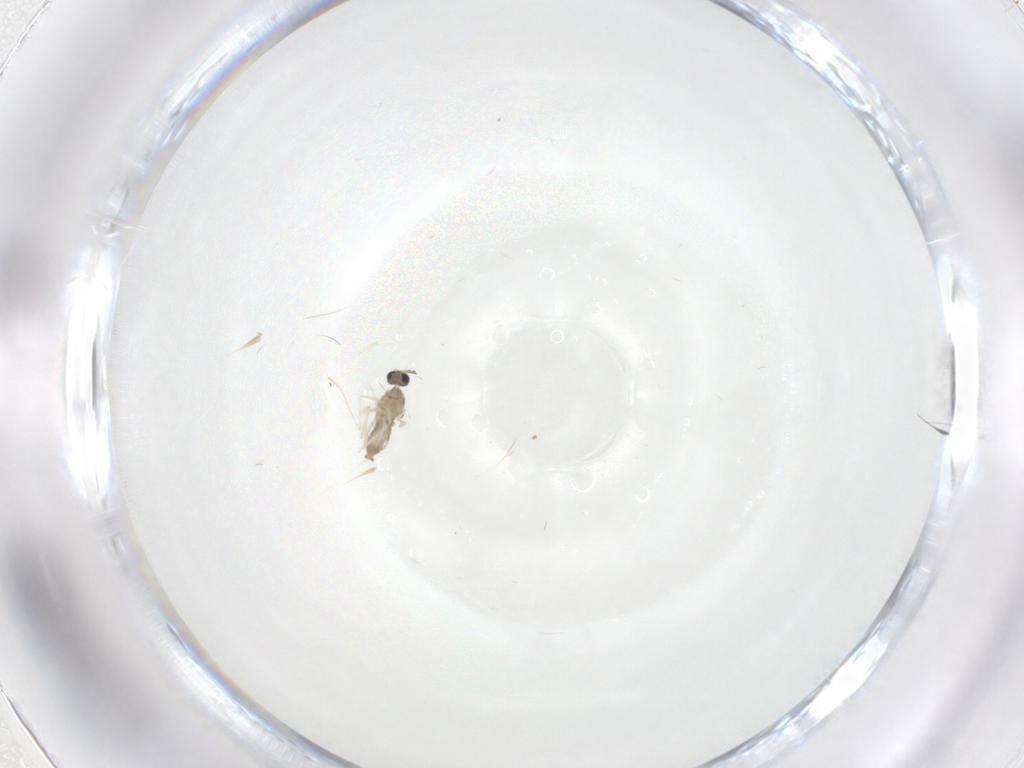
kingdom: Animalia
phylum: Arthropoda
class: Insecta
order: Diptera
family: Cecidomyiidae
